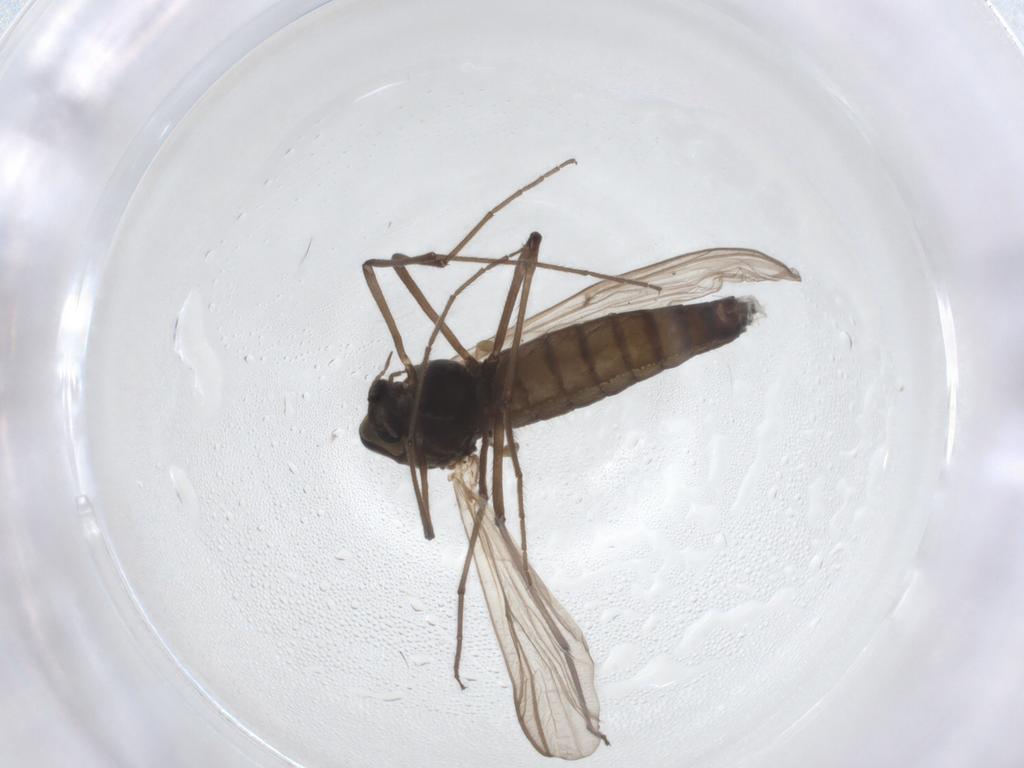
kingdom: Animalia
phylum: Arthropoda
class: Insecta
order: Diptera
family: Chironomidae
